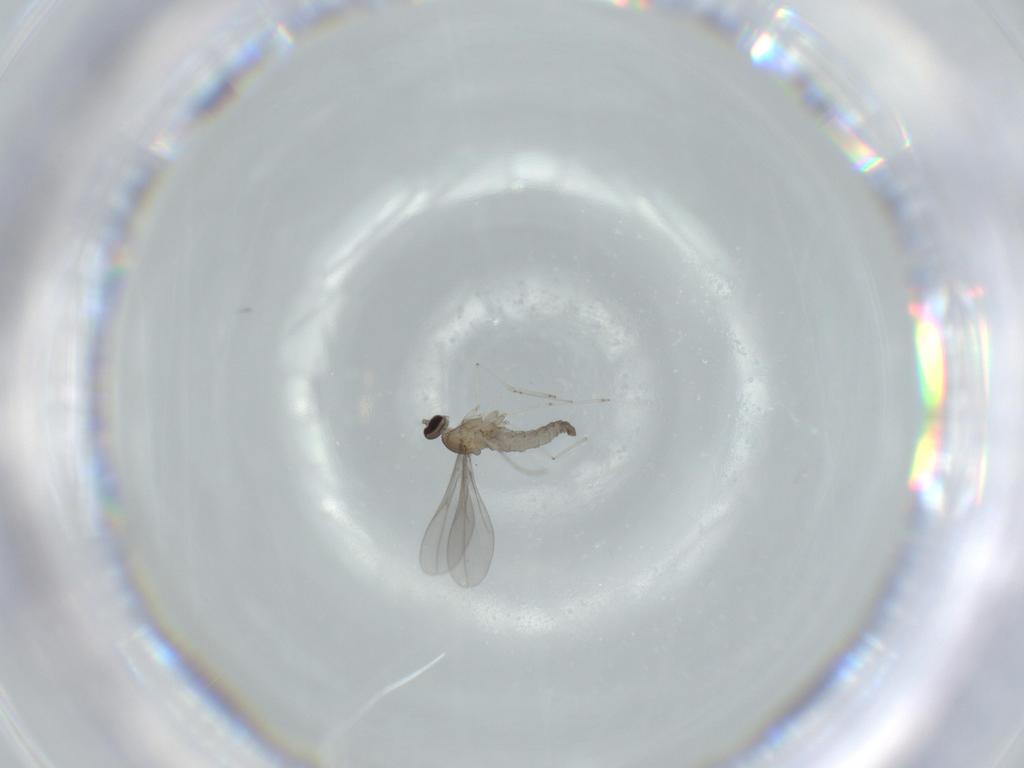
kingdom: Animalia
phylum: Arthropoda
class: Insecta
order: Diptera
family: Cecidomyiidae
